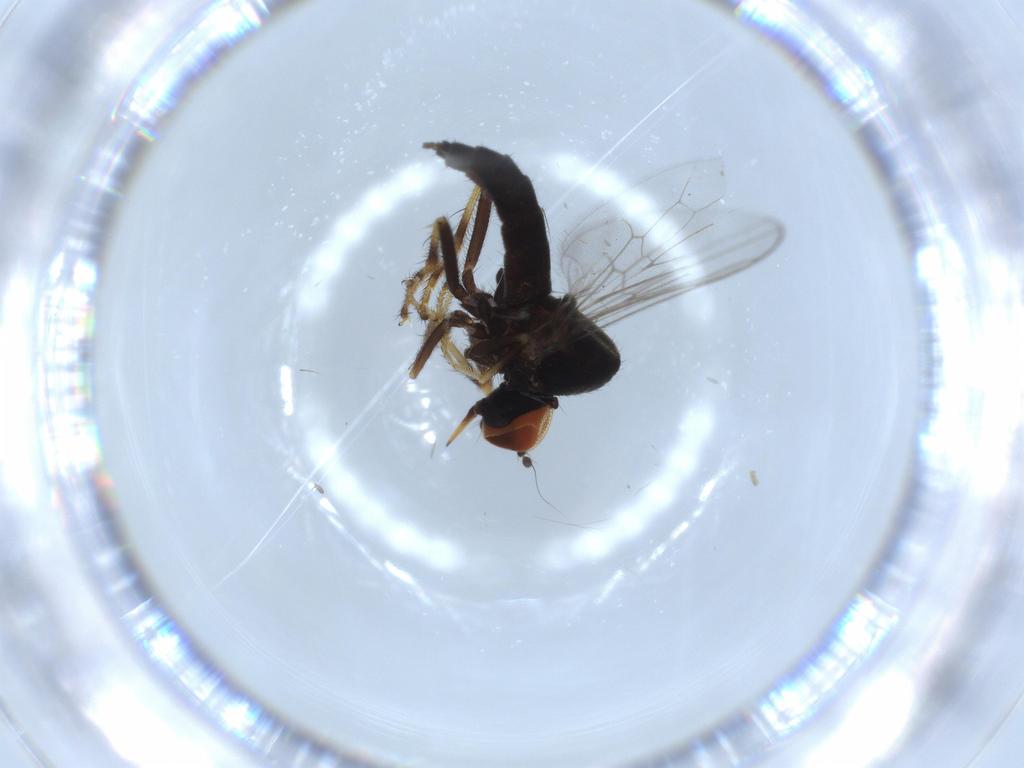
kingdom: Animalia
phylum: Arthropoda
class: Insecta
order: Diptera
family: Hybotidae
